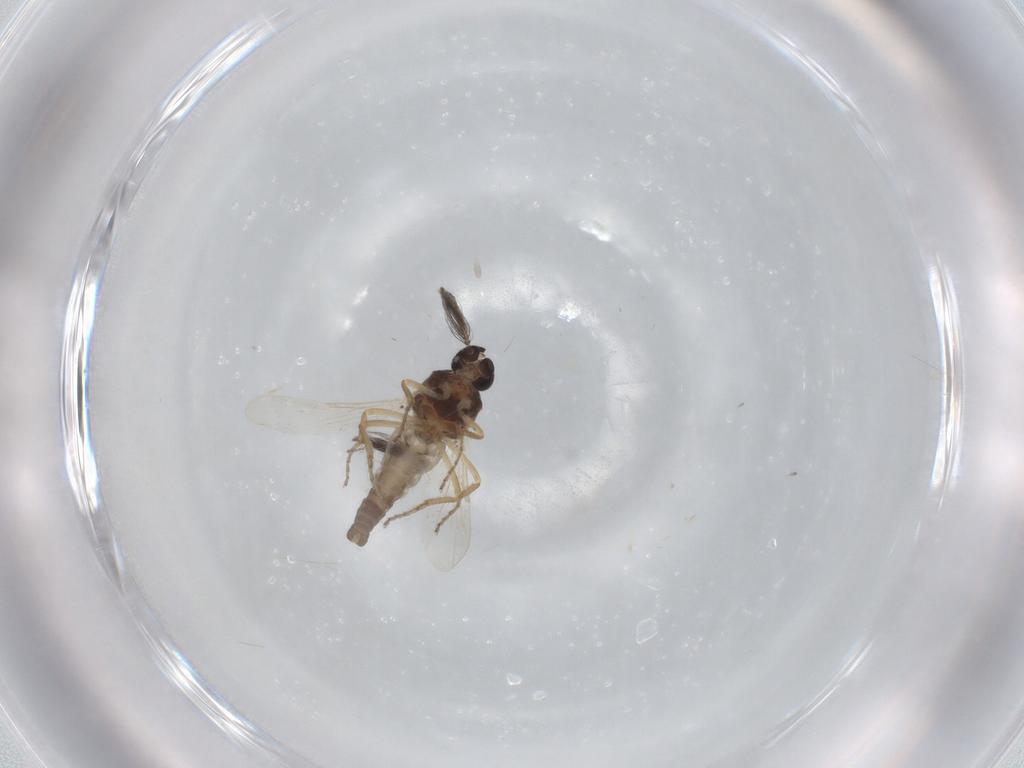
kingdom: Animalia
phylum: Arthropoda
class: Insecta
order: Diptera
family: Ceratopogonidae
